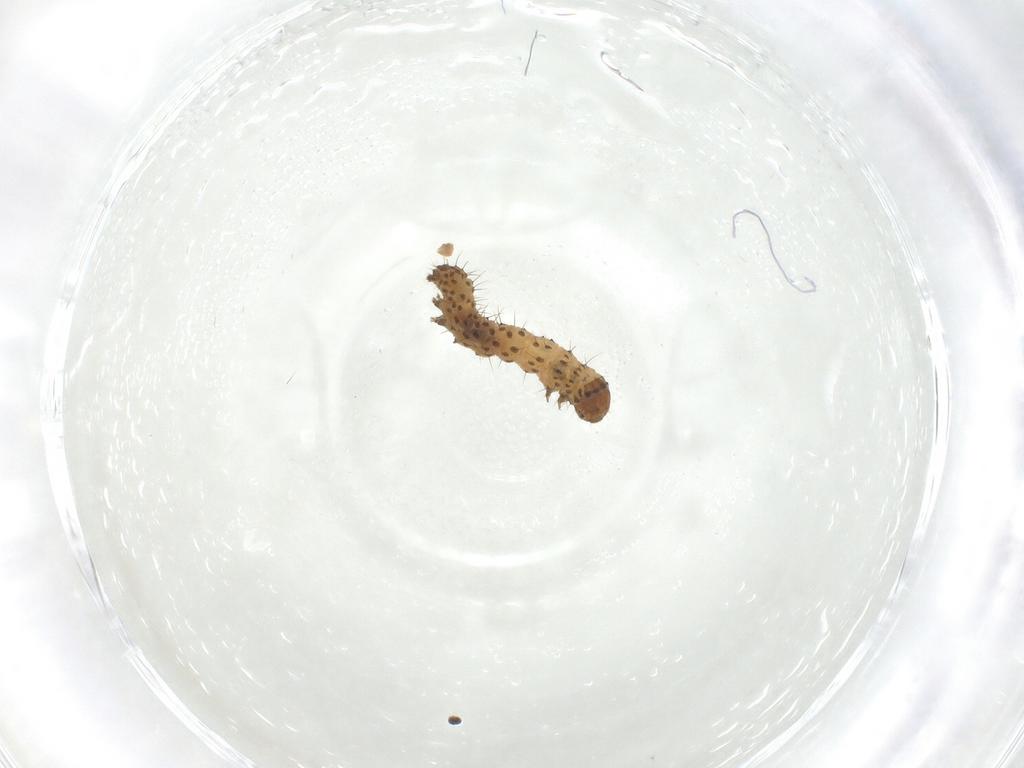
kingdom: Animalia
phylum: Arthropoda
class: Insecta
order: Lepidoptera
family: Noctuidae
